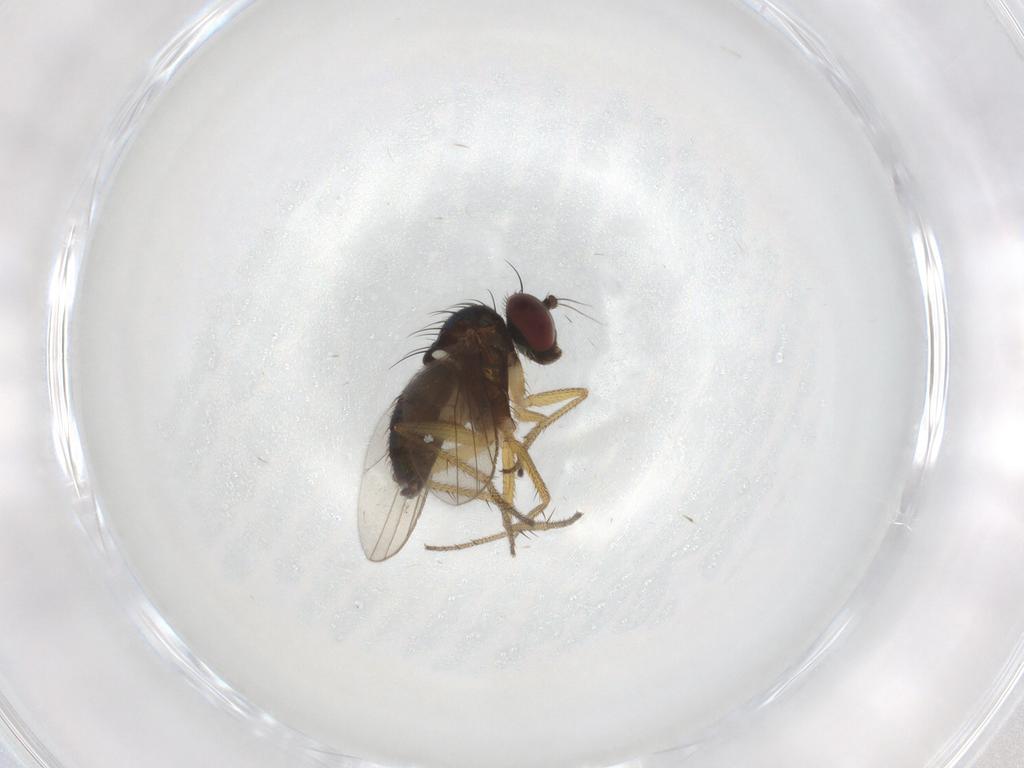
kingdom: Animalia
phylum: Arthropoda
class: Insecta
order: Diptera
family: Dolichopodidae
